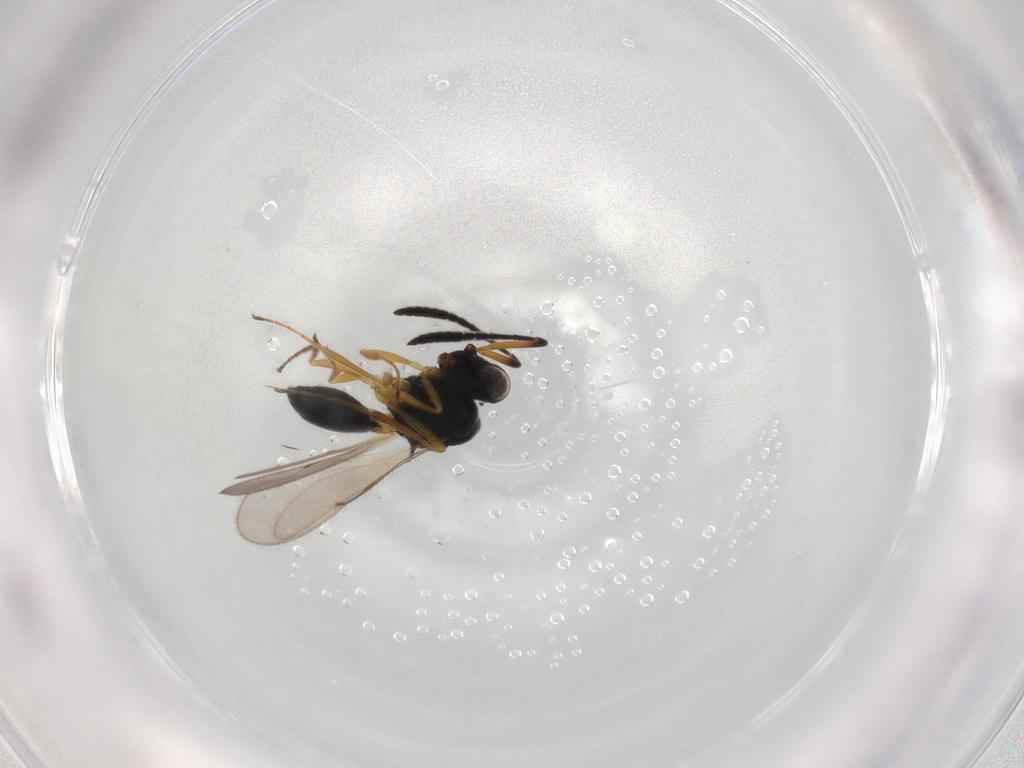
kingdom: Animalia
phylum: Arthropoda
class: Insecta
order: Hymenoptera
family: Scelionidae
